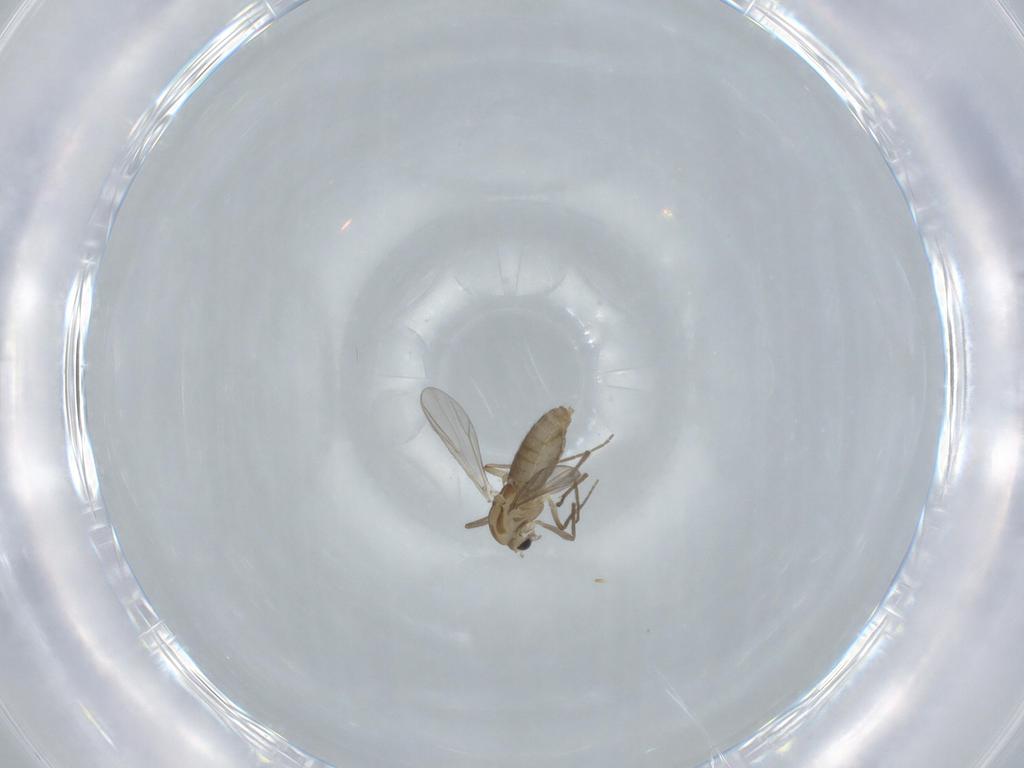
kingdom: Animalia
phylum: Arthropoda
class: Insecta
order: Diptera
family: Chironomidae
